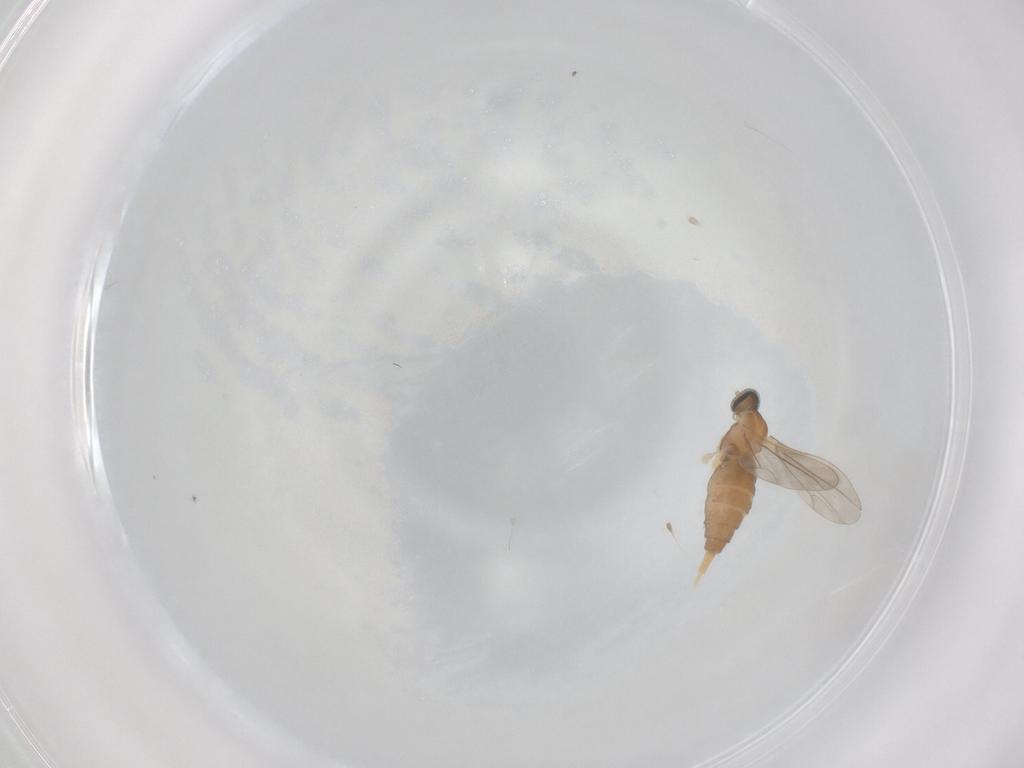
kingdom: Animalia
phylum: Arthropoda
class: Insecta
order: Diptera
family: Cecidomyiidae
